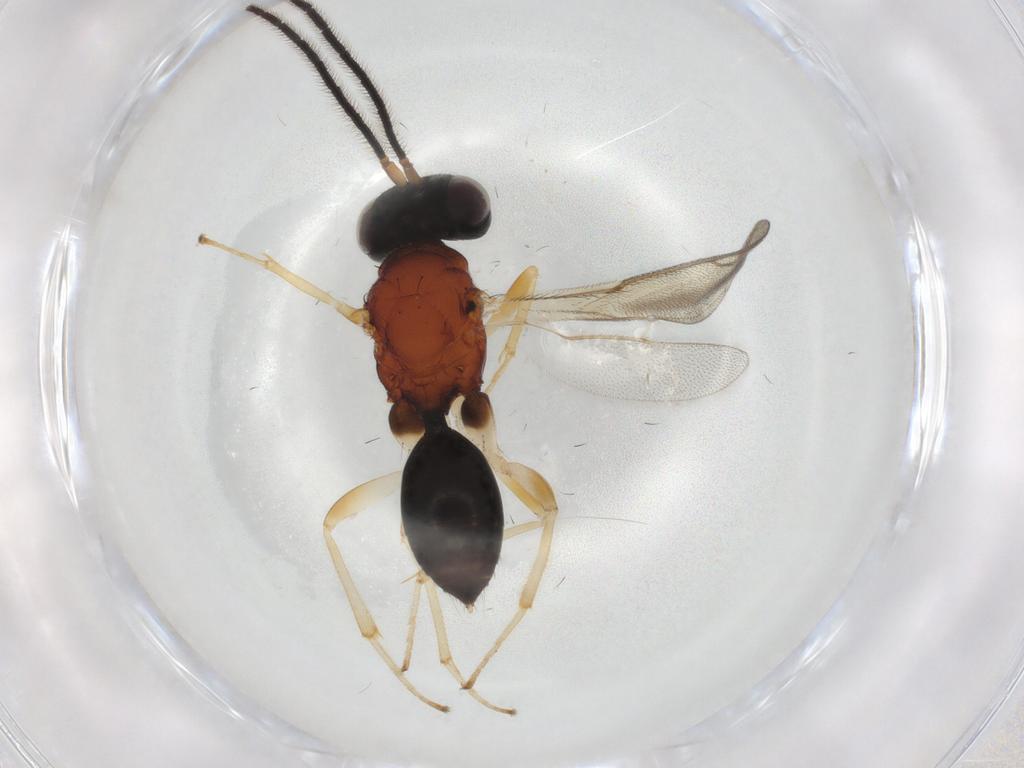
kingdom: Animalia
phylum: Arthropoda
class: Insecta
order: Hymenoptera
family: Diparidae
